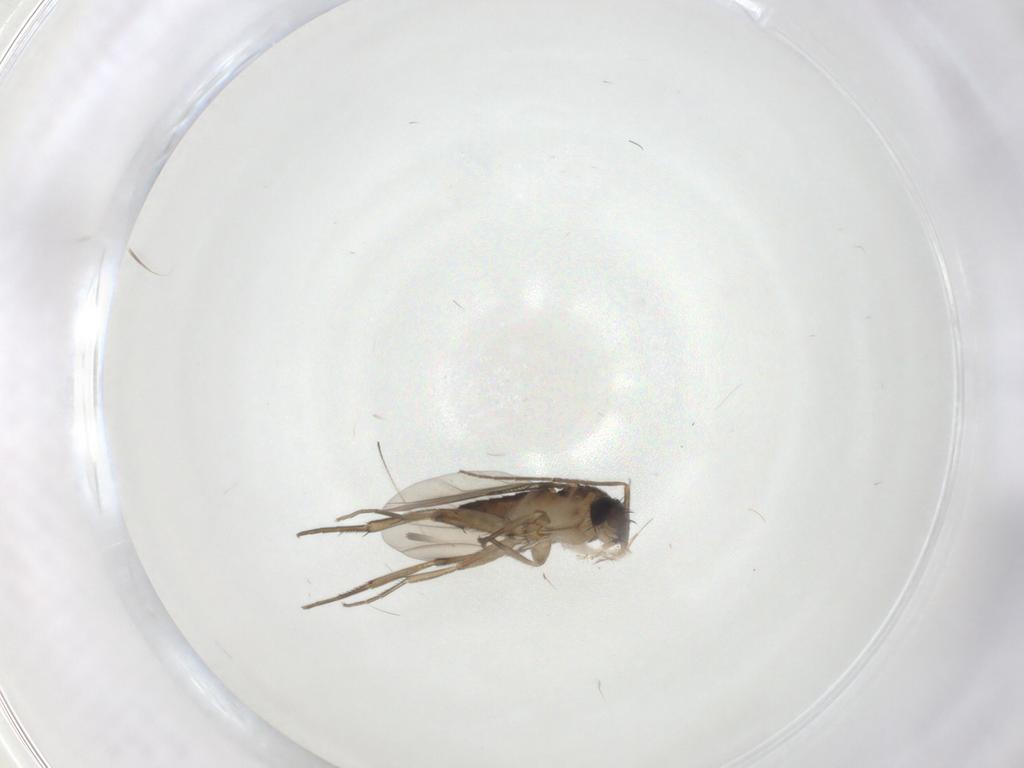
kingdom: Animalia
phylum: Arthropoda
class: Insecta
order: Diptera
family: Phoridae
